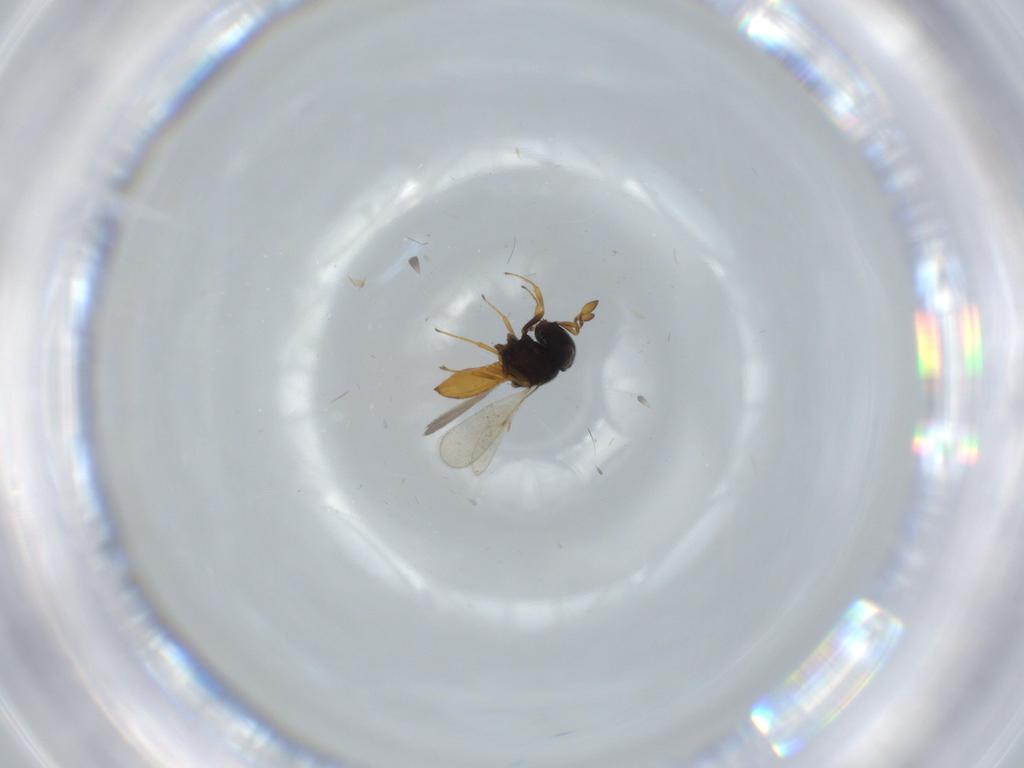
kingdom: Animalia
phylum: Arthropoda
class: Insecta
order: Hymenoptera
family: Scelionidae
